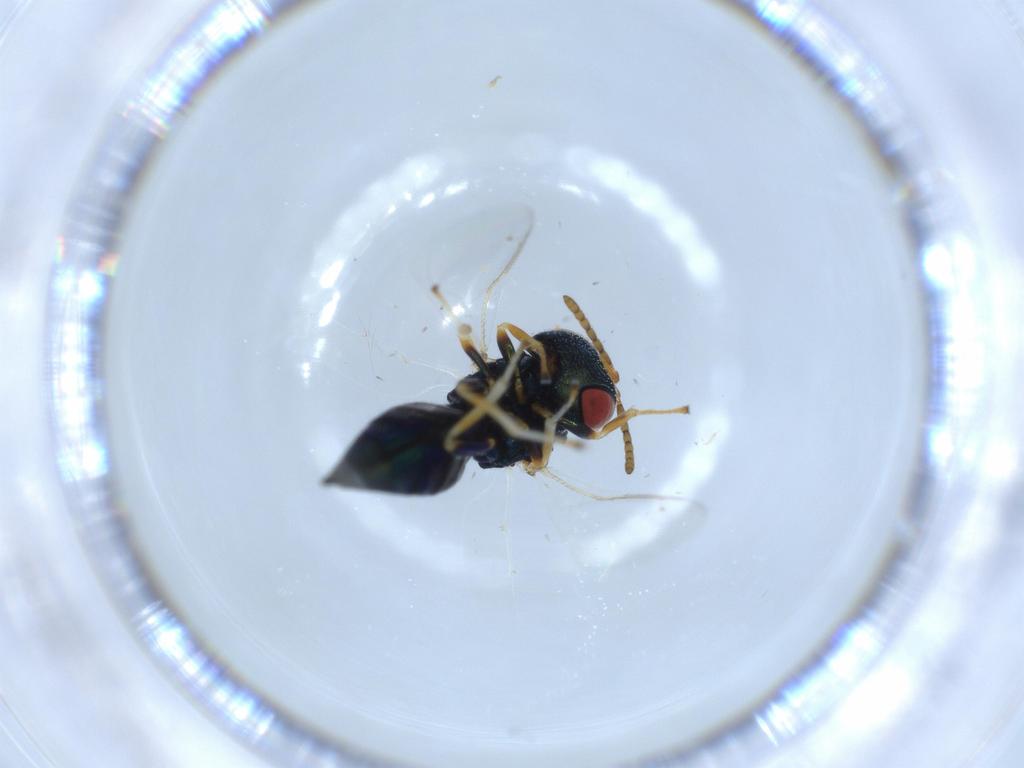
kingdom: Animalia
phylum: Arthropoda
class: Insecta
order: Hymenoptera
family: Pteromalidae
